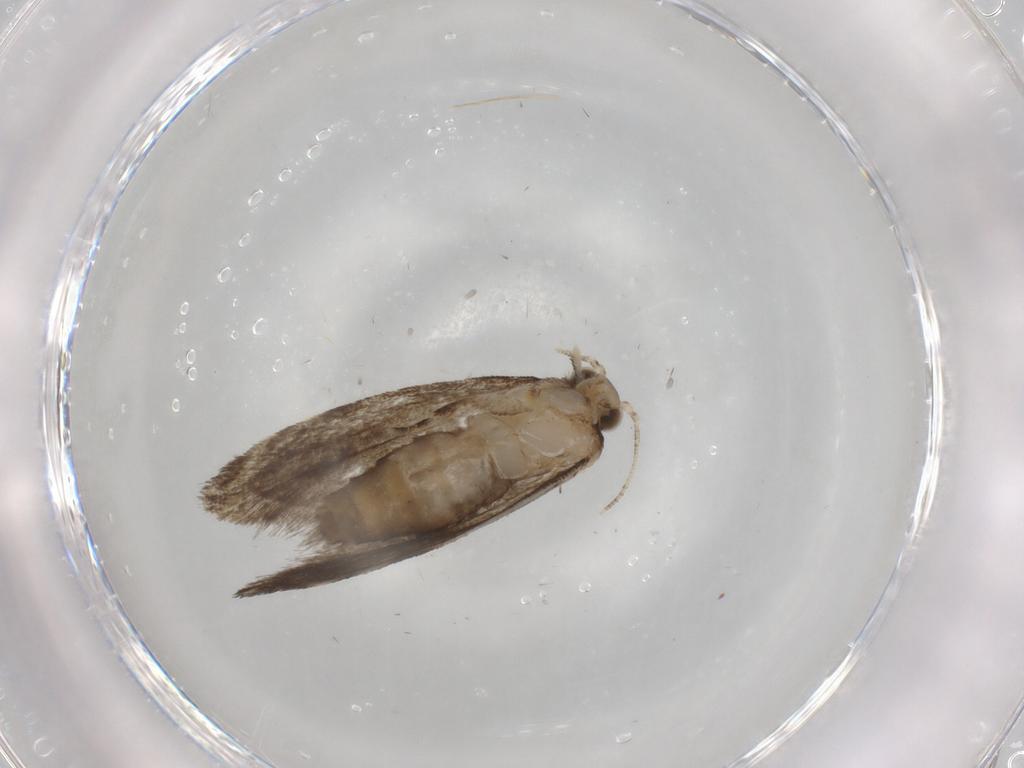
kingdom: Animalia
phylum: Arthropoda
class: Insecta
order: Lepidoptera
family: Tineidae
